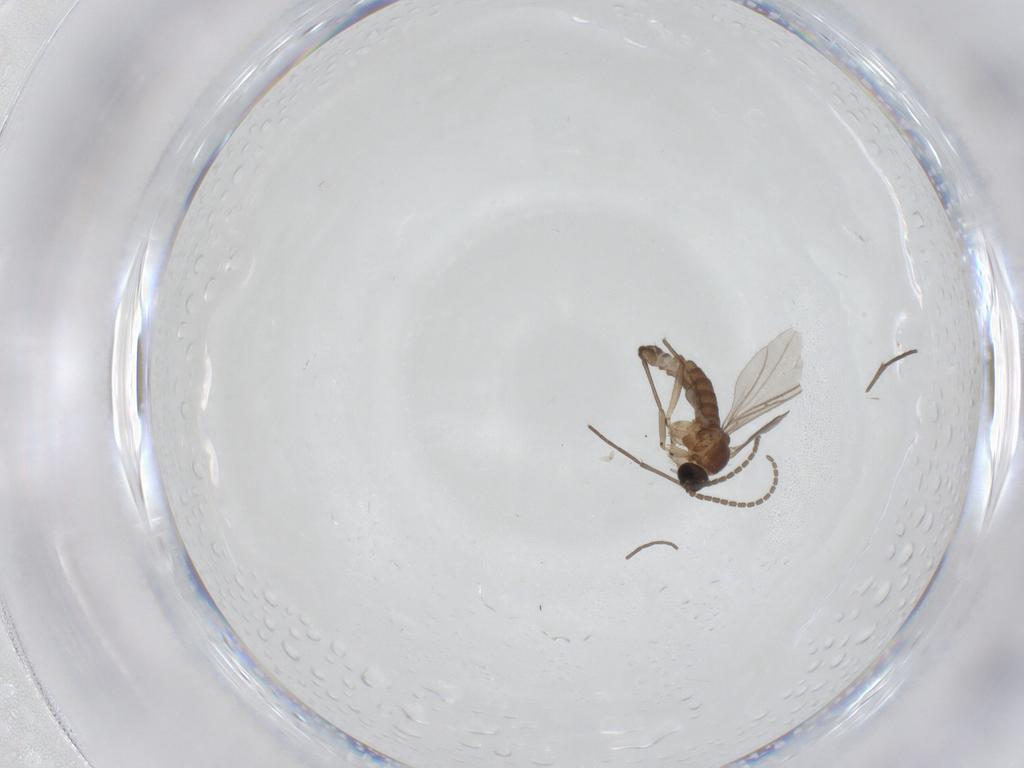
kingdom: Animalia
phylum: Arthropoda
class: Insecta
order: Diptera
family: Sciaridae
